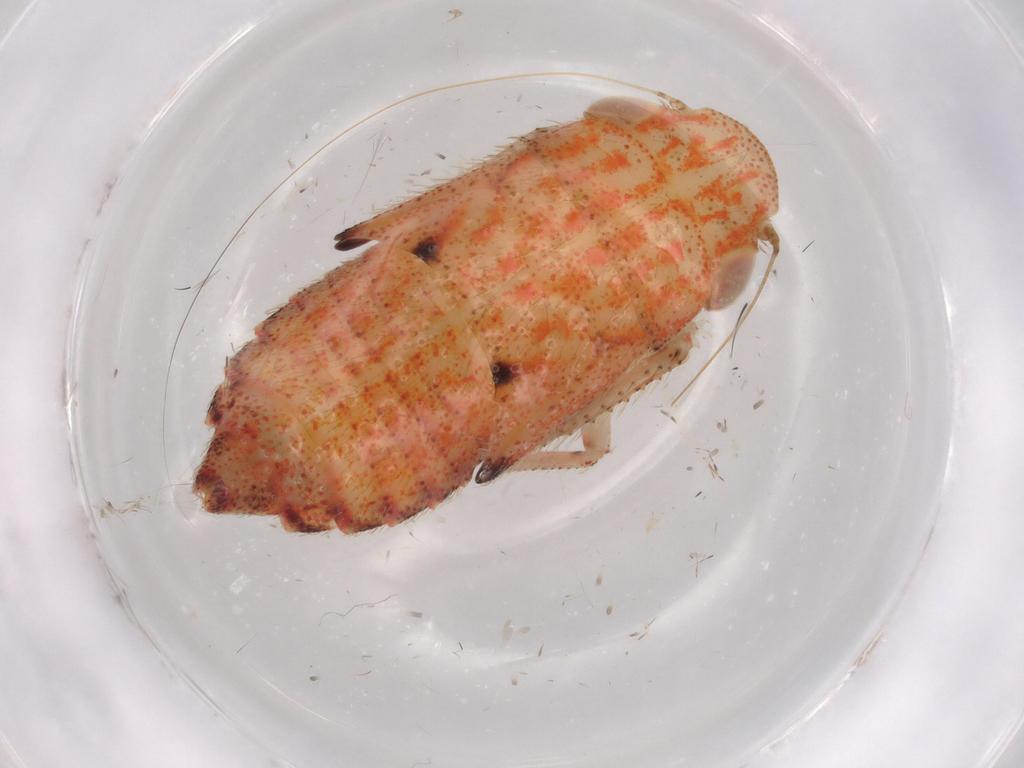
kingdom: Animalia
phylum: Arthropoda
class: Insecta
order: Hemiptera
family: Cicadellidae
